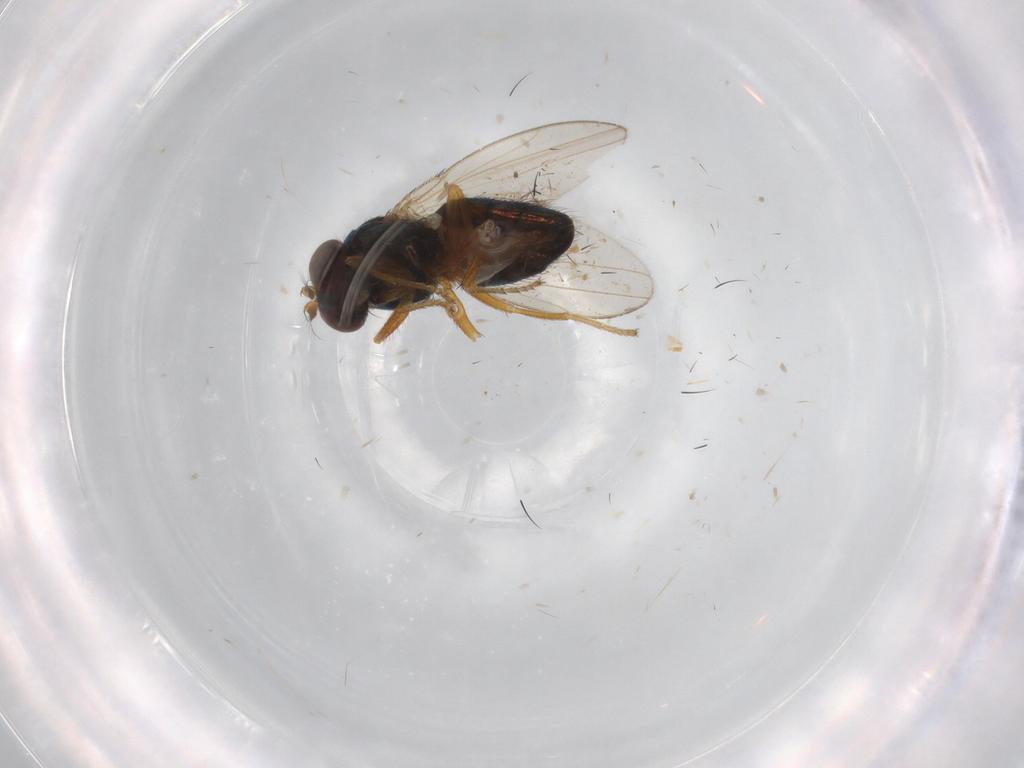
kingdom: Animalia
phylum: Arthropoda
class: Insecta
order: Diptera
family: Ephydridae
